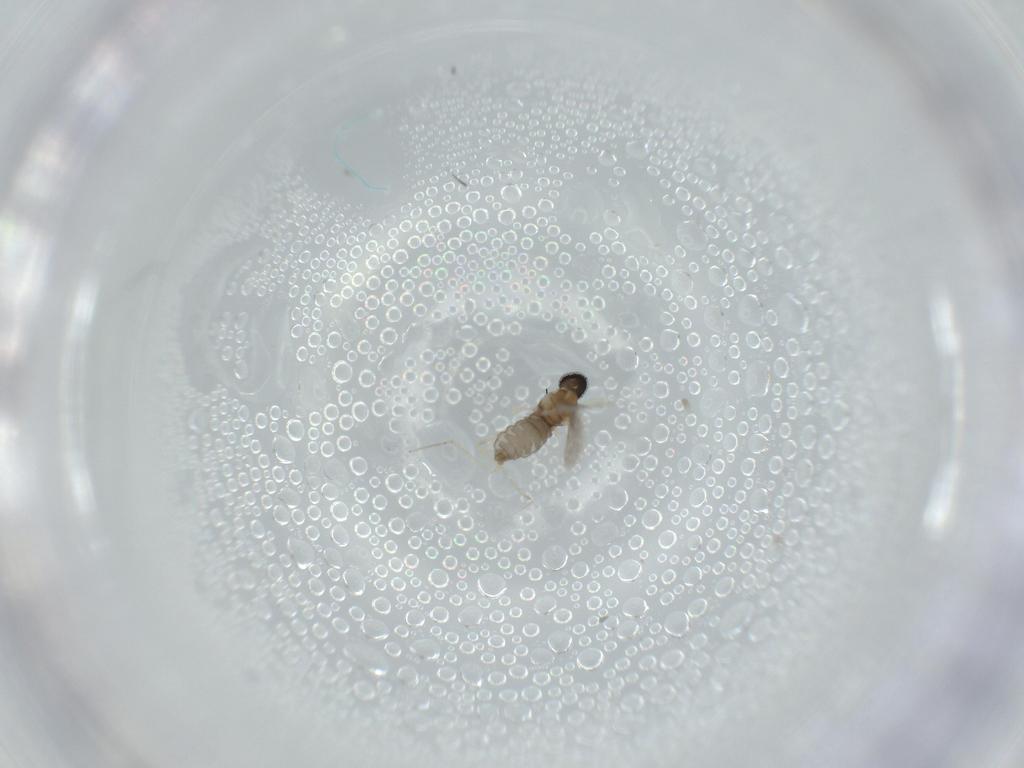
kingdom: Animalia
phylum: Arthropoda
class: Insecta
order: Diptera
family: Cecidomyiidae
